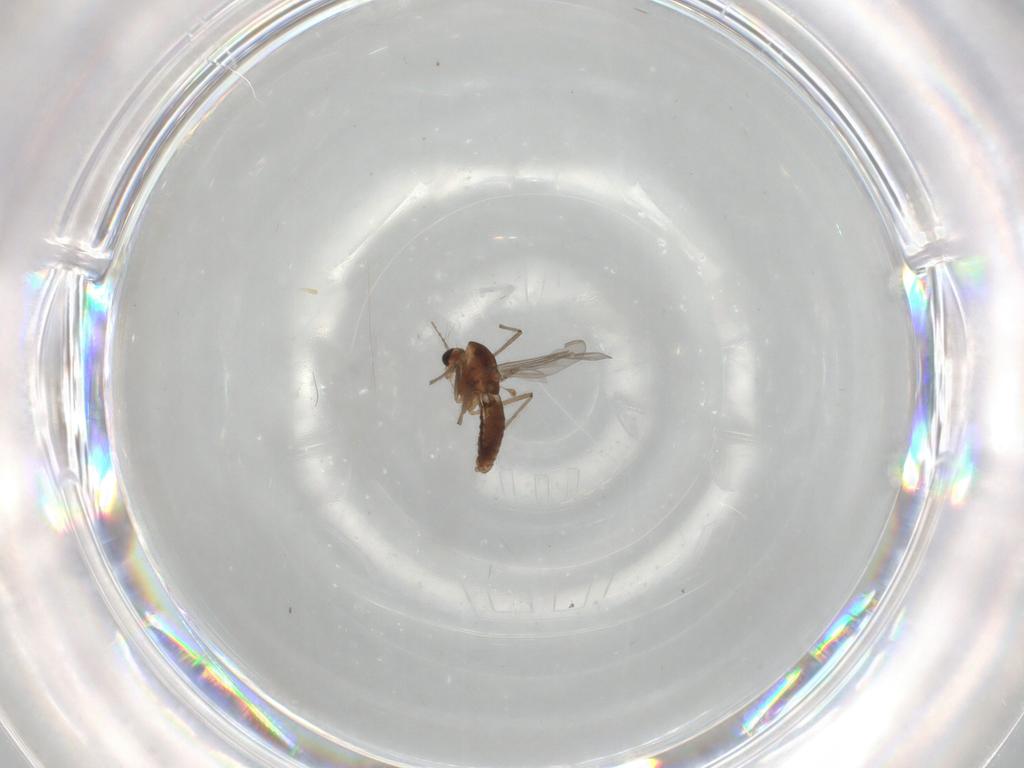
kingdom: Animalia
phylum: Arthropoda
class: Insecta
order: Diptera
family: Chironomidae
